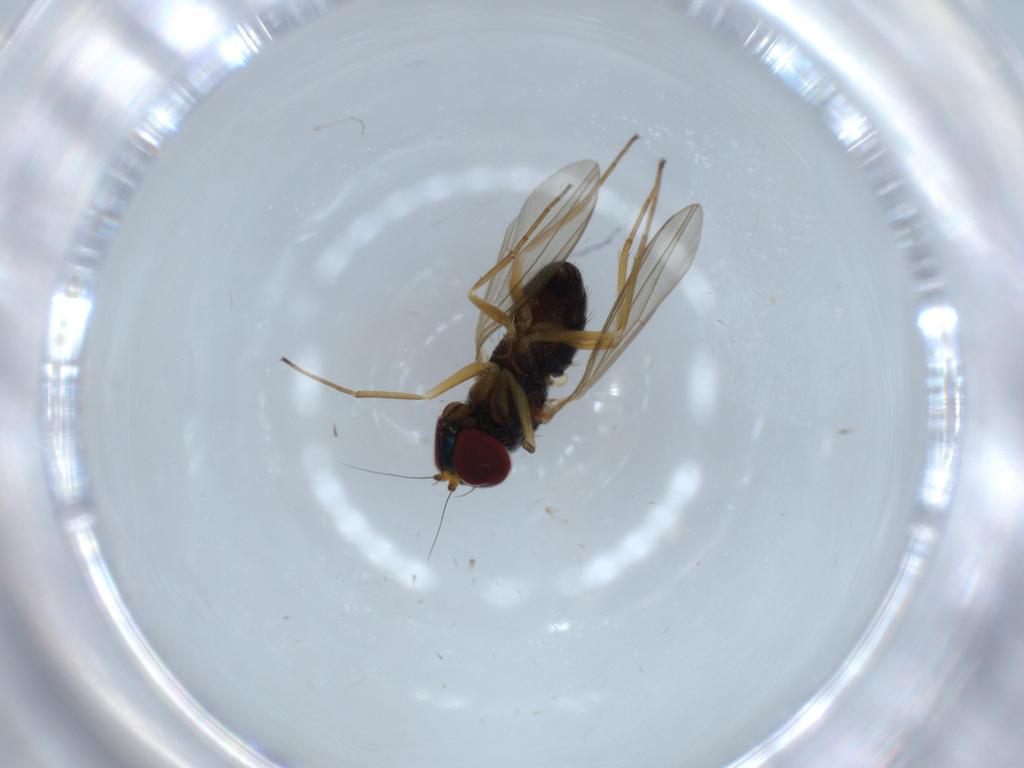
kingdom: Animalia
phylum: Arthropoda
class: Insecta
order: Diptera
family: Dolichopodidae
